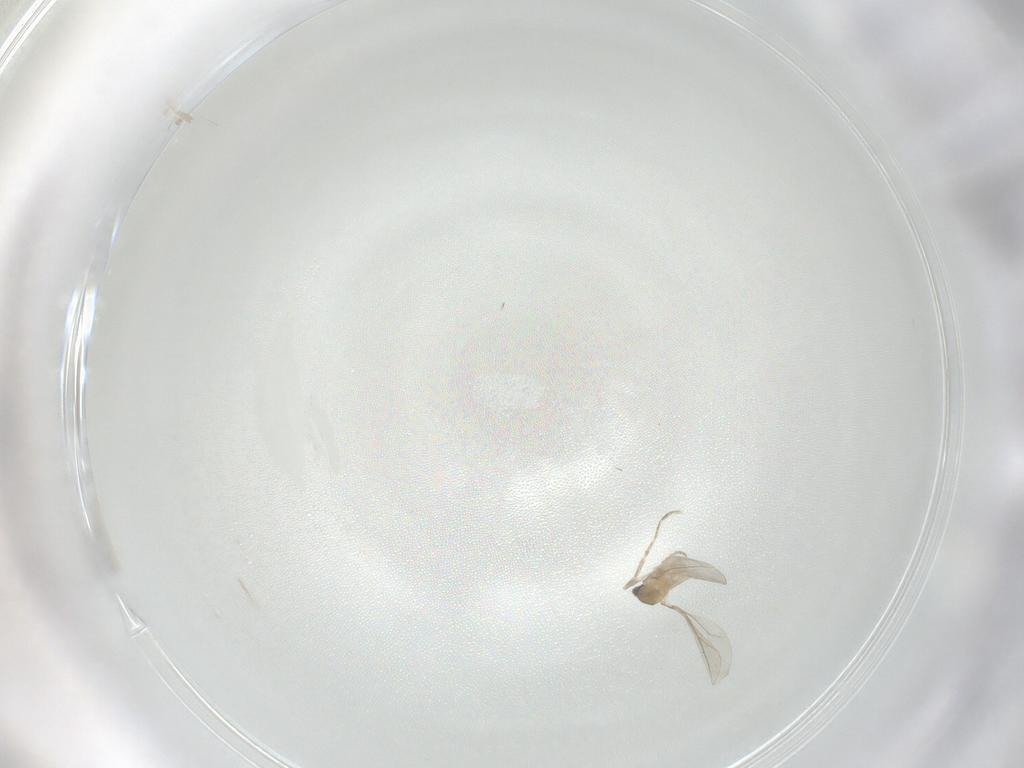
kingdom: Animalia
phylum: Arthropoda
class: Insecta
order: Diptera
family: Cecidomyiidae
